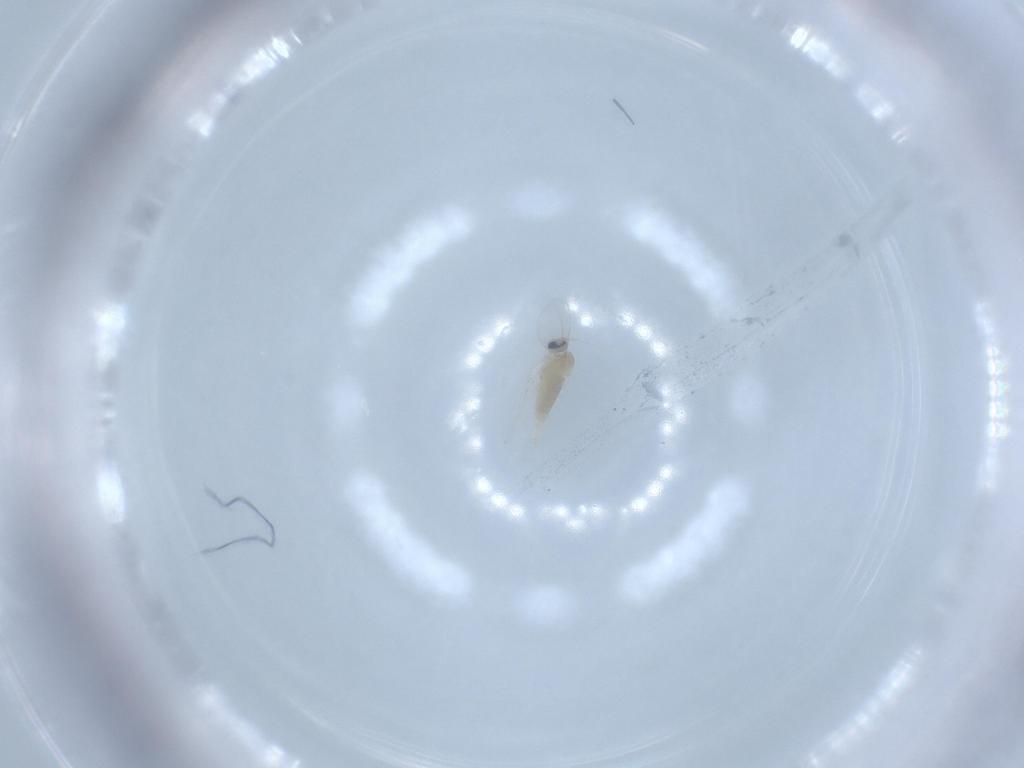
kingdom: Animalia
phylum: Arthropoda
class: Insecta
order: Diptera
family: Cecidomyiidae
